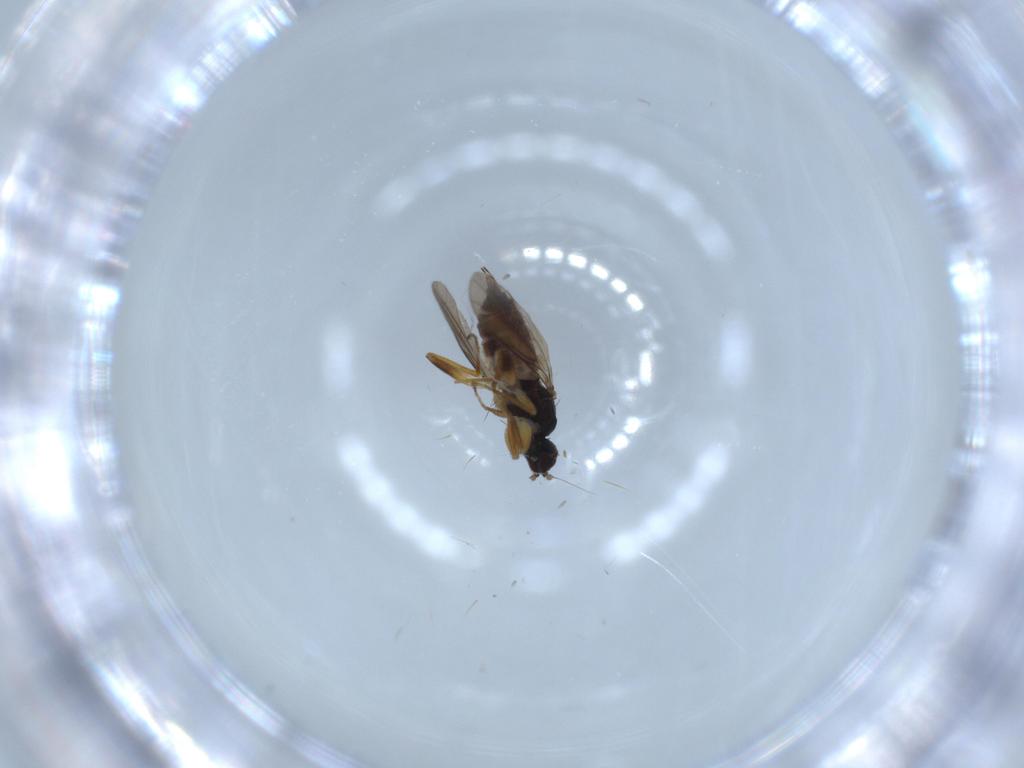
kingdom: Animalia
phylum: Arthropoda
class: Insecta
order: Diptera
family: Hybotidae
